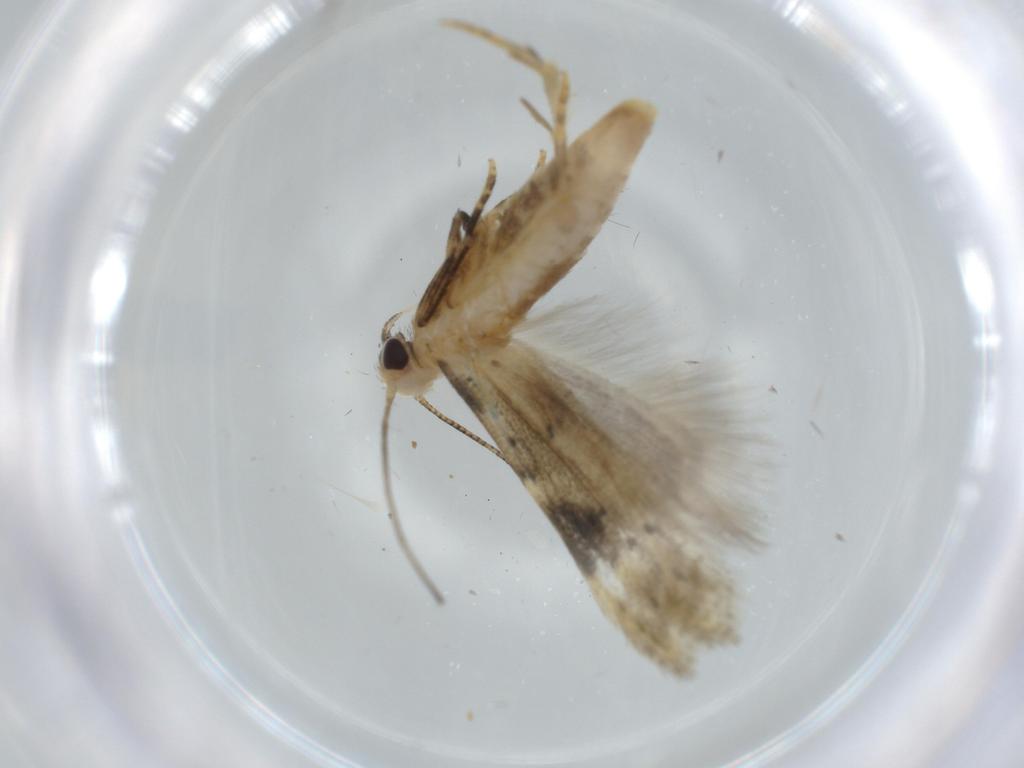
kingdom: Animalia
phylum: Arthropoda
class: Insecta
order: Lepidoptera
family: Coleophoridae
